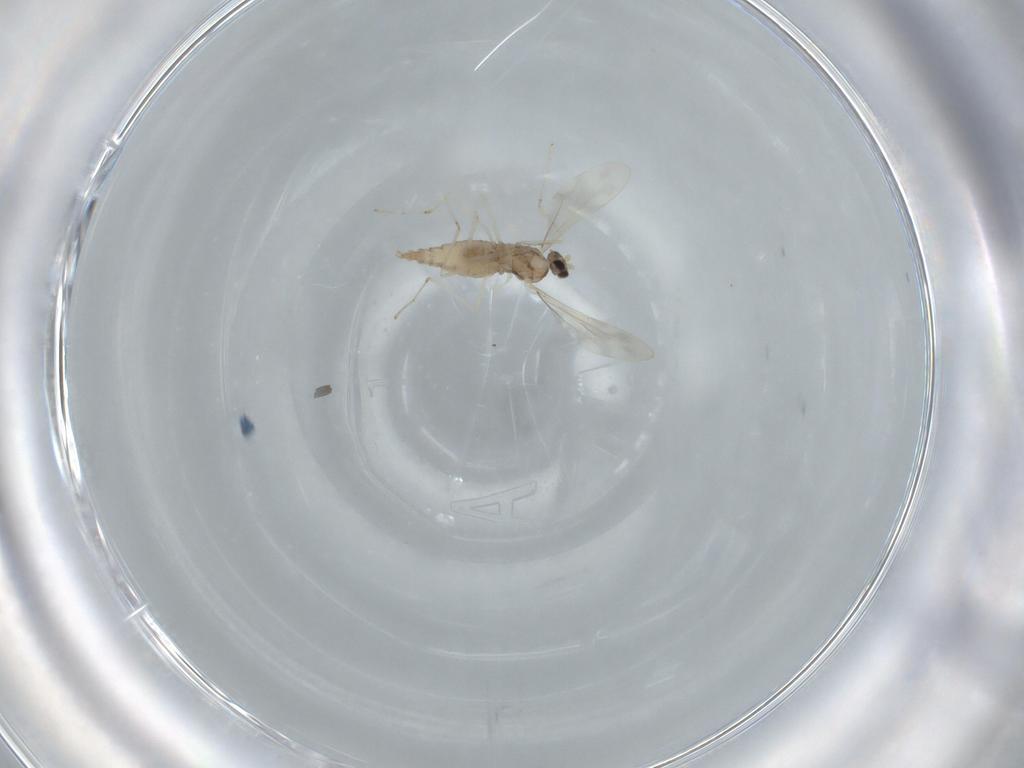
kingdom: Animalia
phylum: Arthropoda
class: Insecta
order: Diptera
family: Cecidomyiidae
